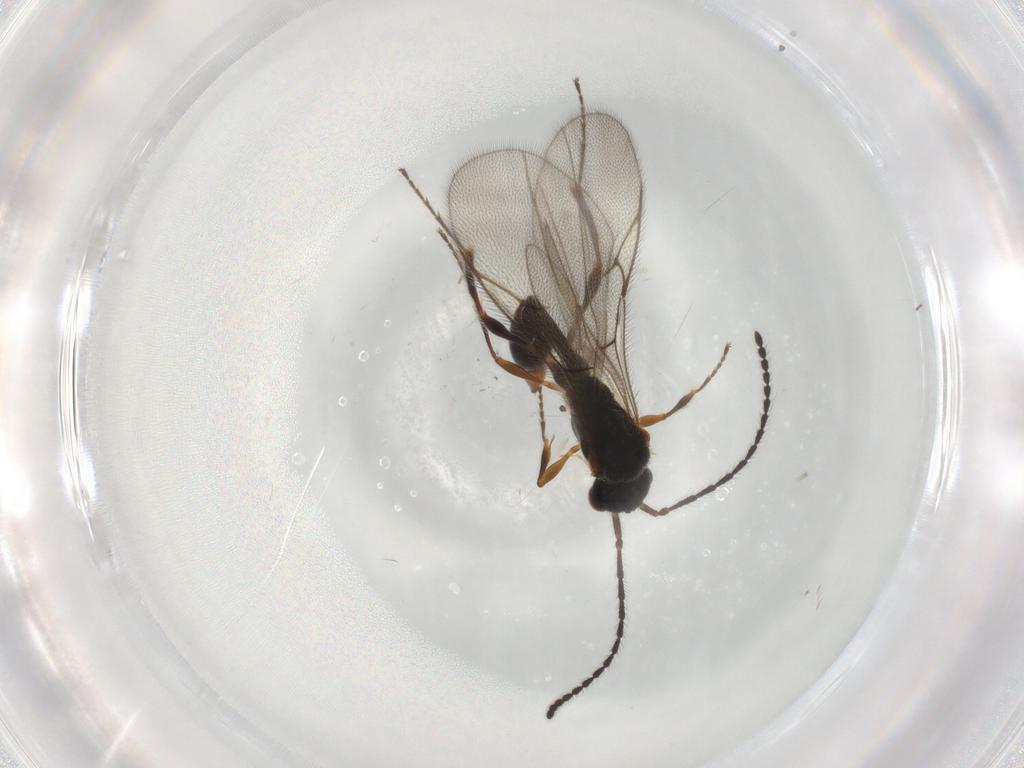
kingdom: Animalia
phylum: Arthropoda
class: Insecta
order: Hymenoptera
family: Diapriidae
